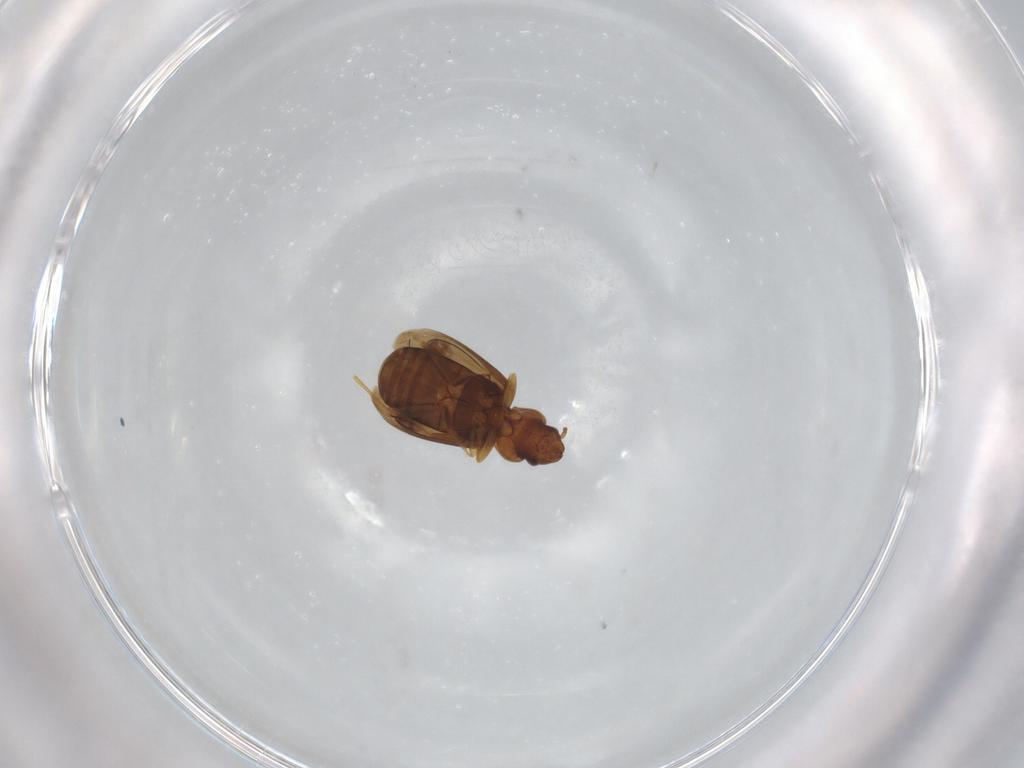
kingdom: Animalia
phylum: Arthropoda
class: Insecta
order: Coleoptera
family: Carabidae
